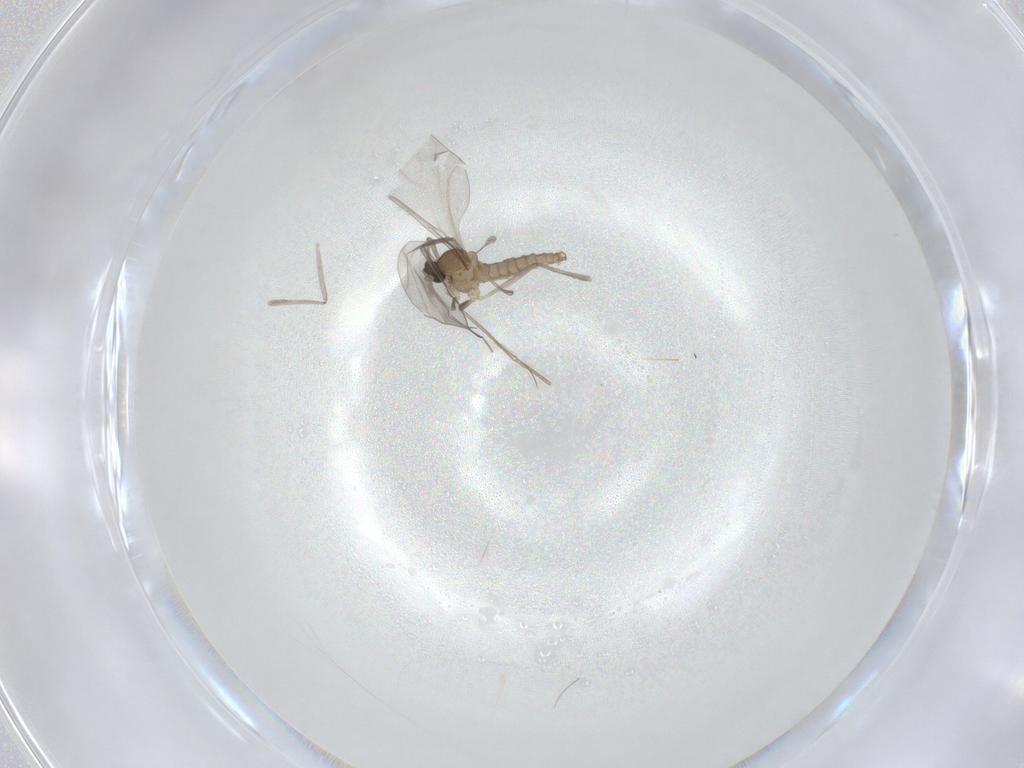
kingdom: Animalia
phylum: Arthropoda
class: Insecta
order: Diptera
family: Cecidomyiidae
